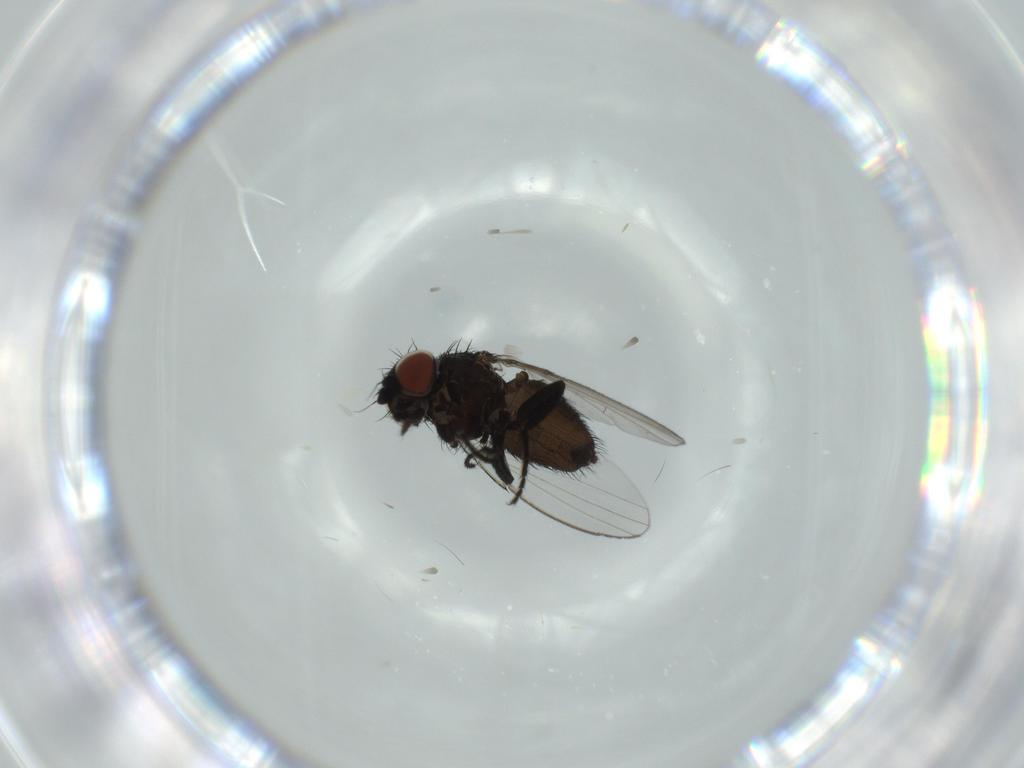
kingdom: Animalia
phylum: Arthropoda
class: Insecta
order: Diptera
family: Milichiidae
